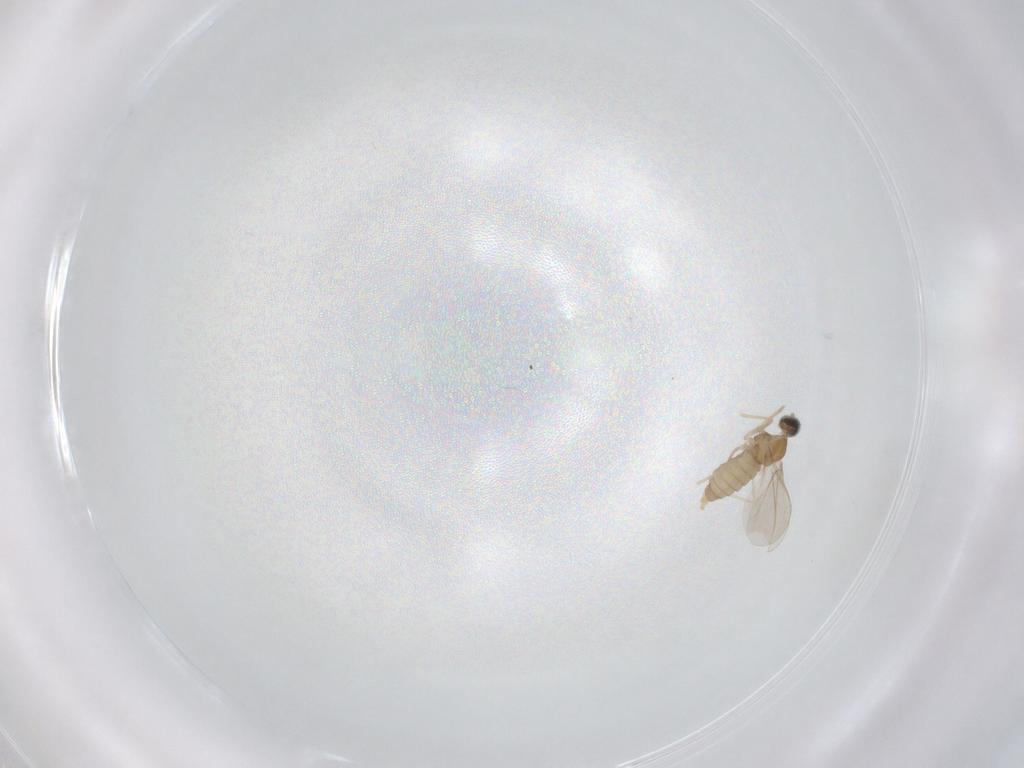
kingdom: Animalia
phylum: Arthropoda
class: Insecta
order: Diptera
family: Cecidomyiidae
